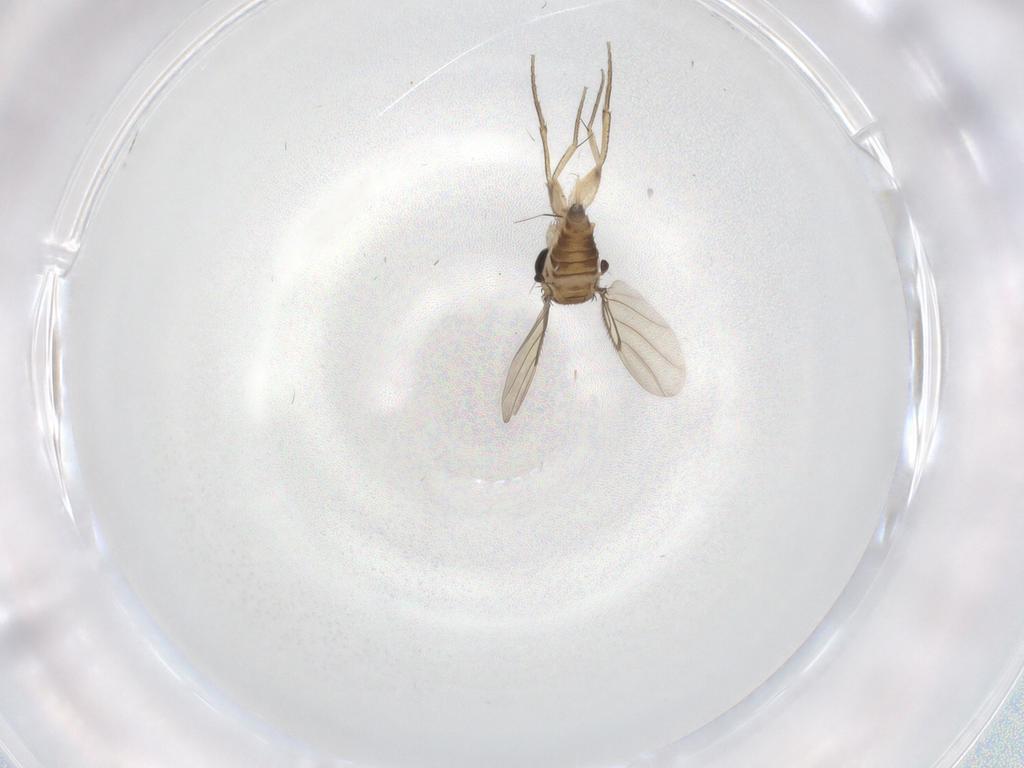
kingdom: Animalia
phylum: Arthropoda
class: Insecta
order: Diptera
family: Phoridae
